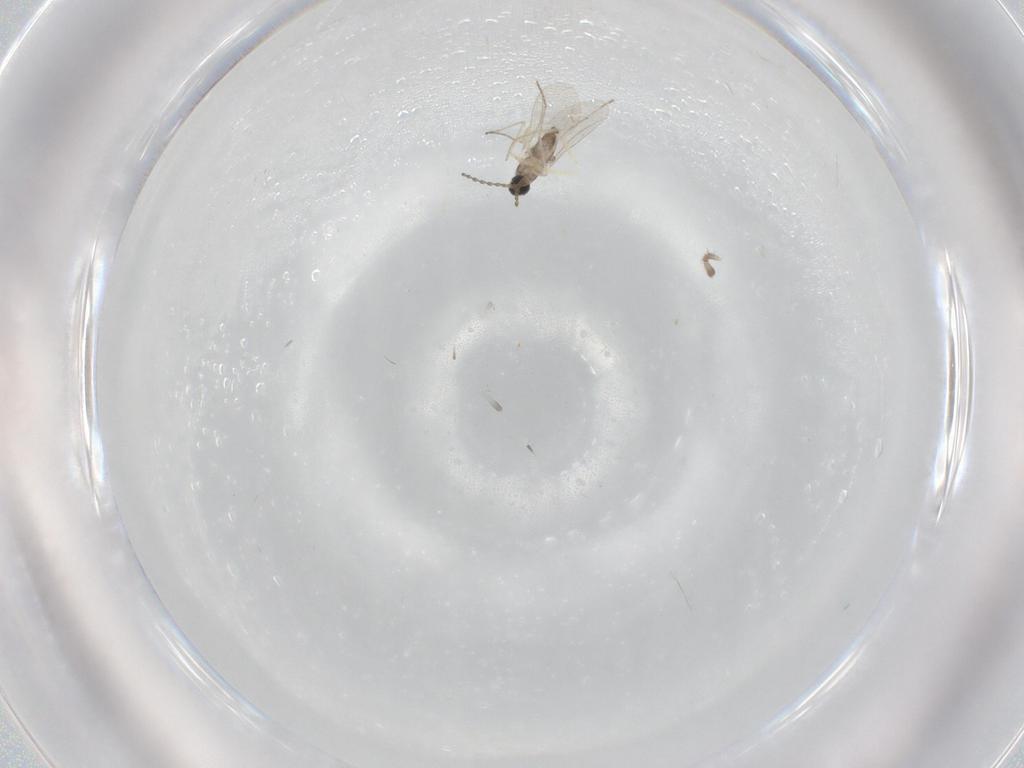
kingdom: Animalia
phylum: Arthropoda
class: Insecta
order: Diptera
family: Cecidomyiidae
